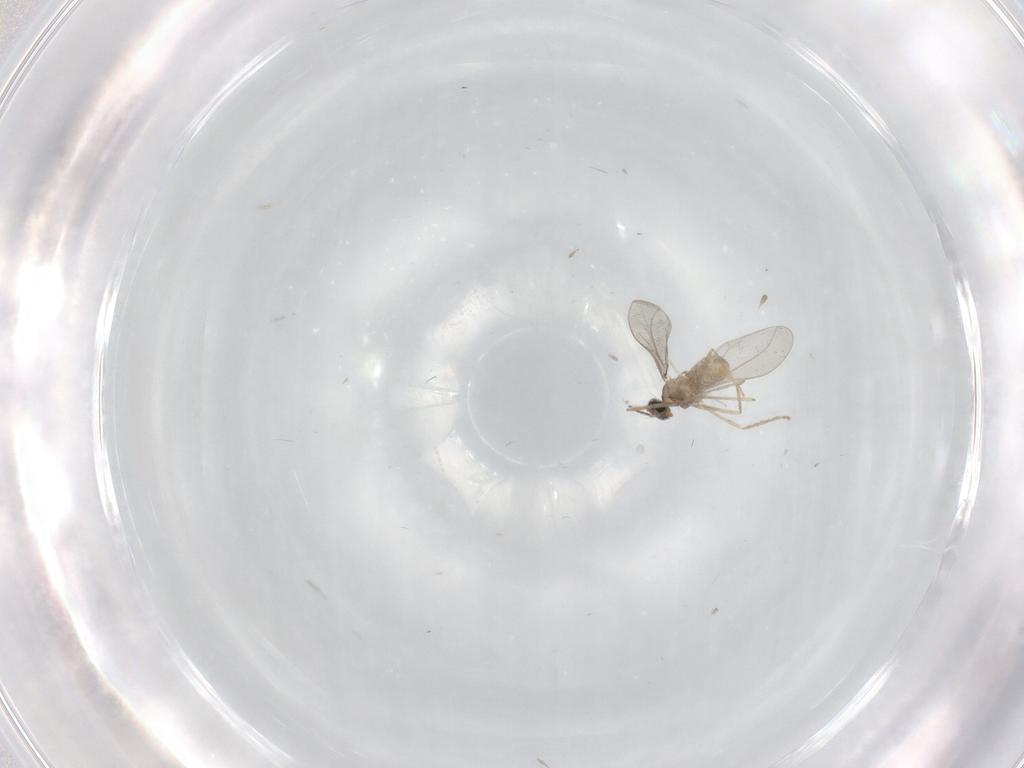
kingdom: Animalia
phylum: Arthropoda
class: Insecta
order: Diptera
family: Cecidomyiidae
